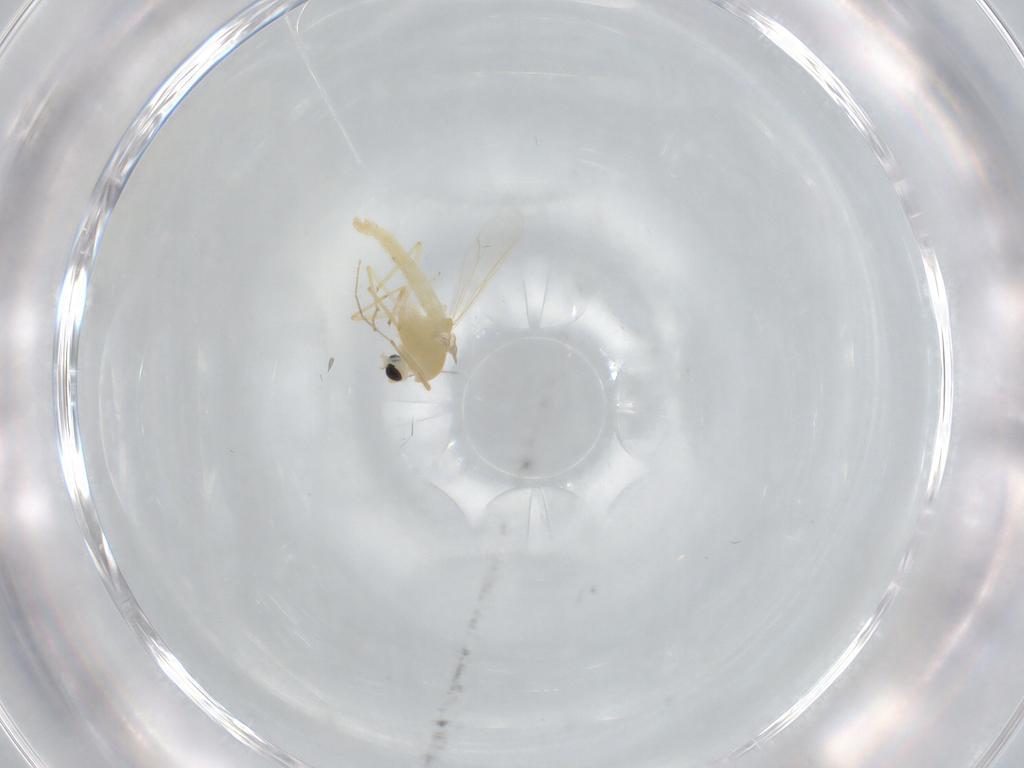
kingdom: Animalia
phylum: Arthropoda
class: Insecta
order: Diptera
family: Chironomidae
